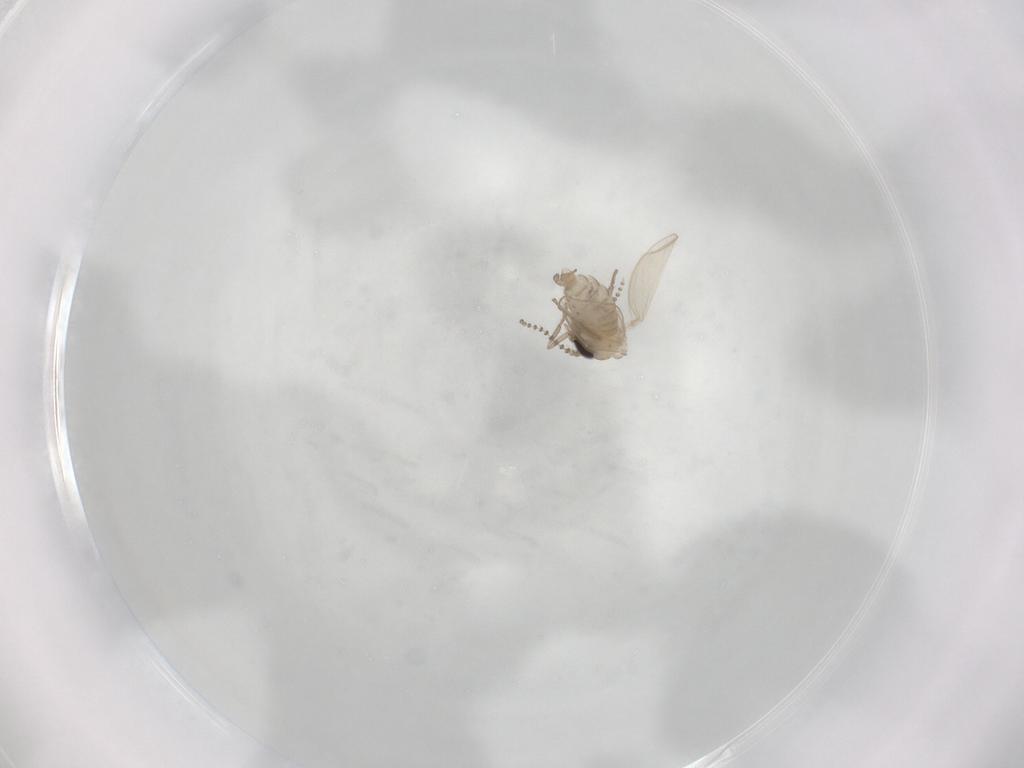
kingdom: Animalia
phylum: Arthropoda
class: Insecta
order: Diptera
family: Psychodidae
